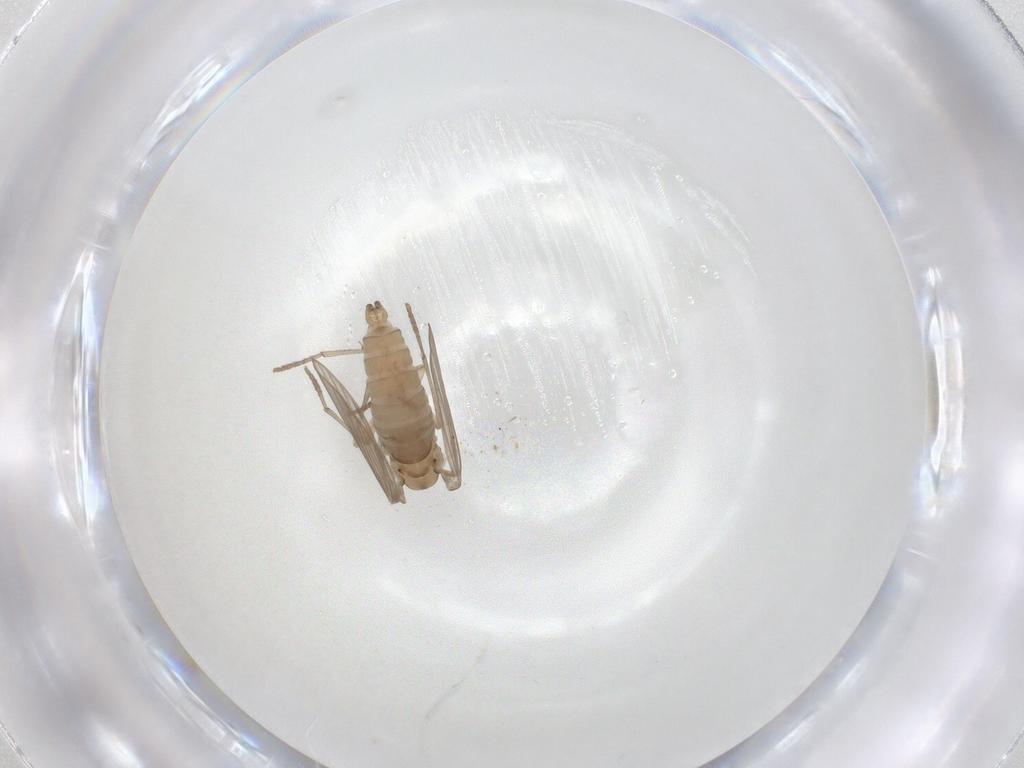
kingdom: Animalia
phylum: Arthropoda
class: Insecta
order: Diptera
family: Psychodidae
